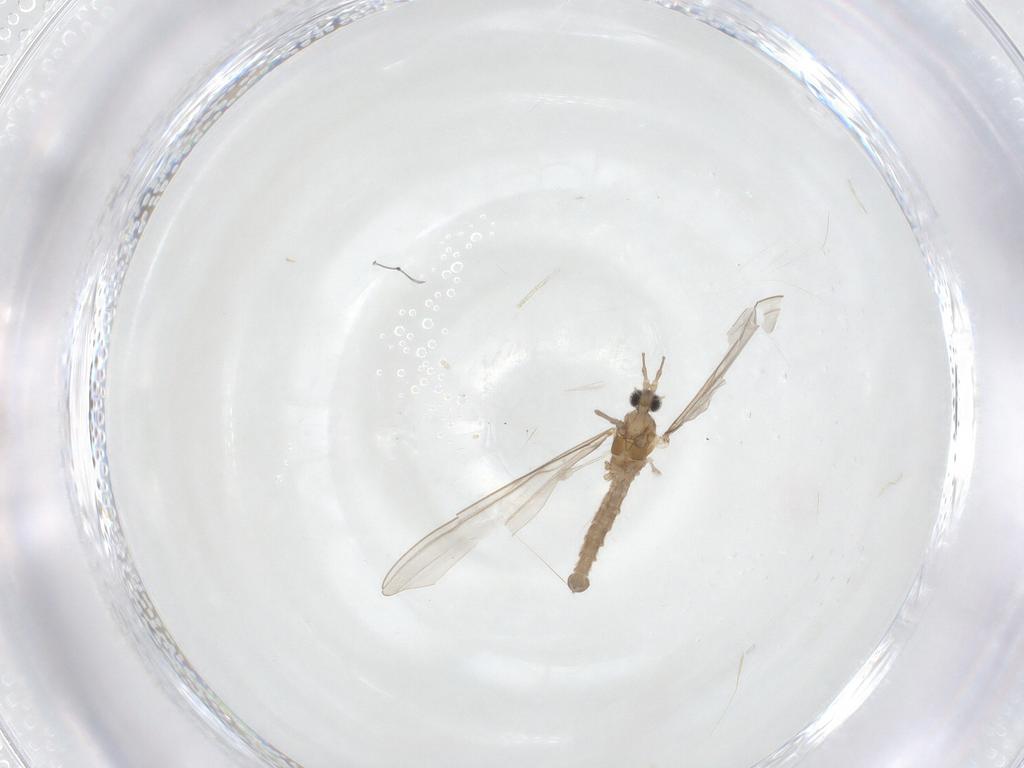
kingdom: Animalia
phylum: Arthropoda
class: Insecta
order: Diptera
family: Cecidomyiidae
